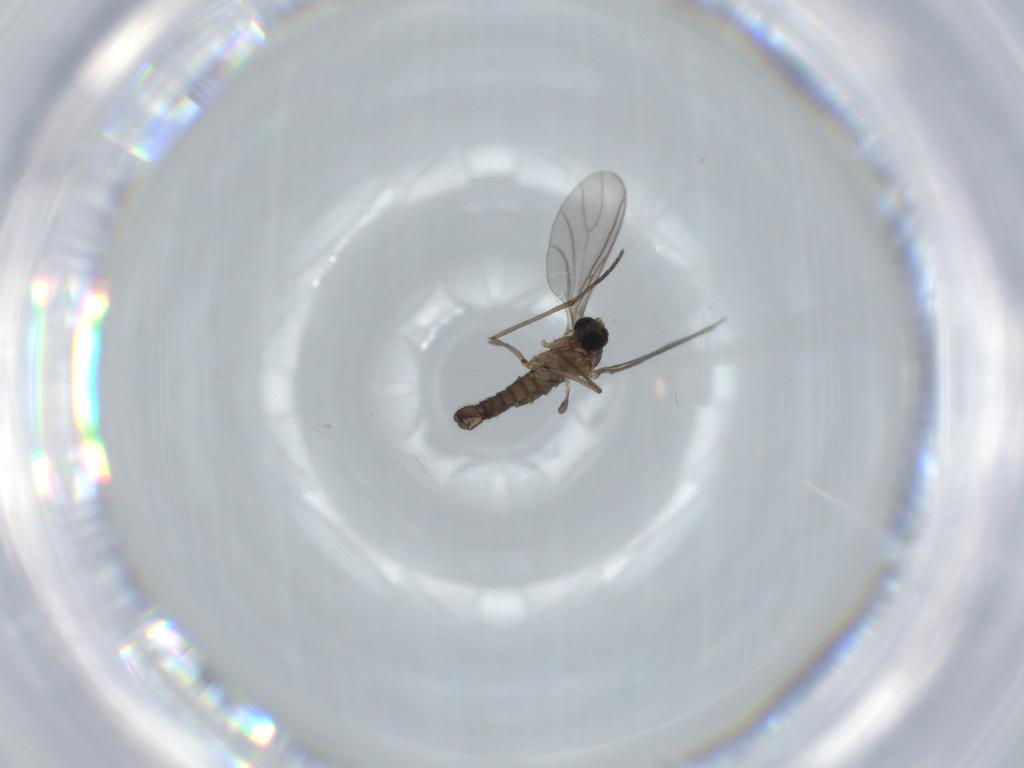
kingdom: Animalia
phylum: Arthropoda
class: Insecta
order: Diptera
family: Sciaridae
